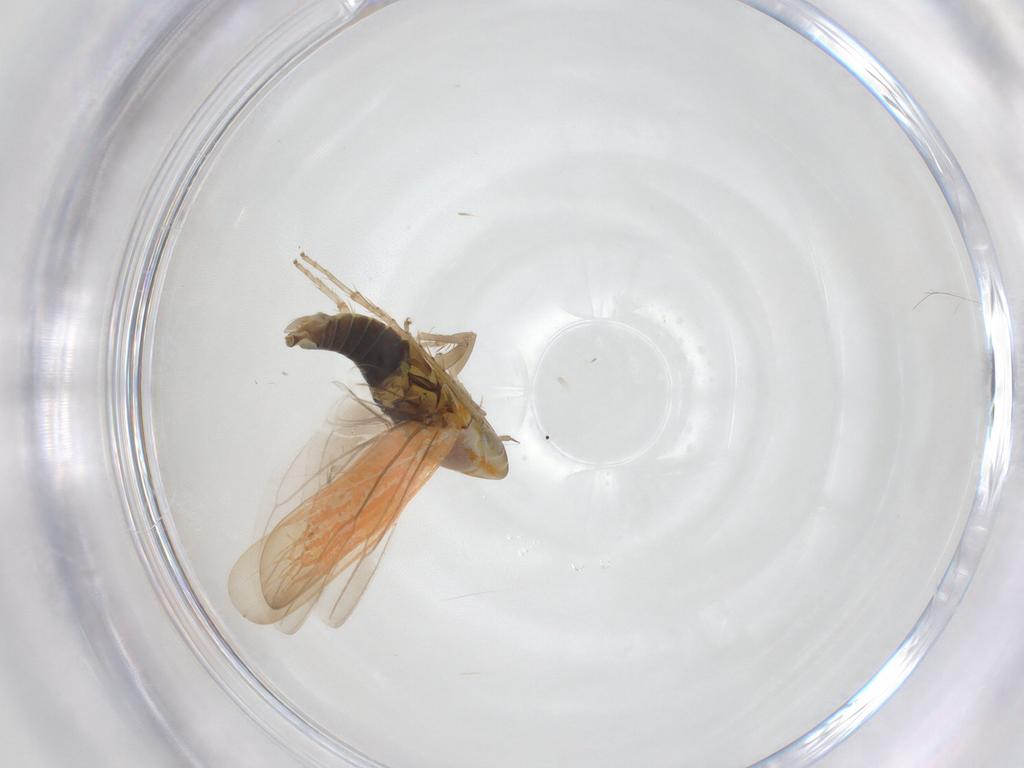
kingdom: Animalia
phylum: Arthropoda
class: Insecta
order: Hemiptera
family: Cicadellidae
